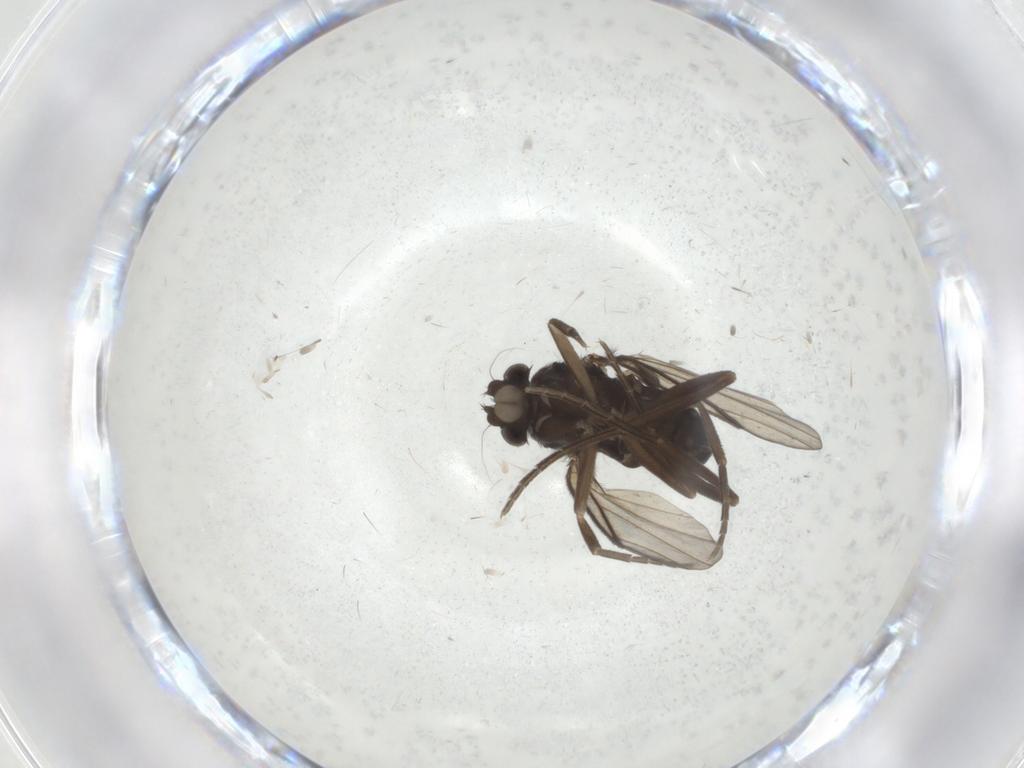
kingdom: Animalia
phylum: Arthropoda
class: Insecta
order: Diptera
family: Phoridae
